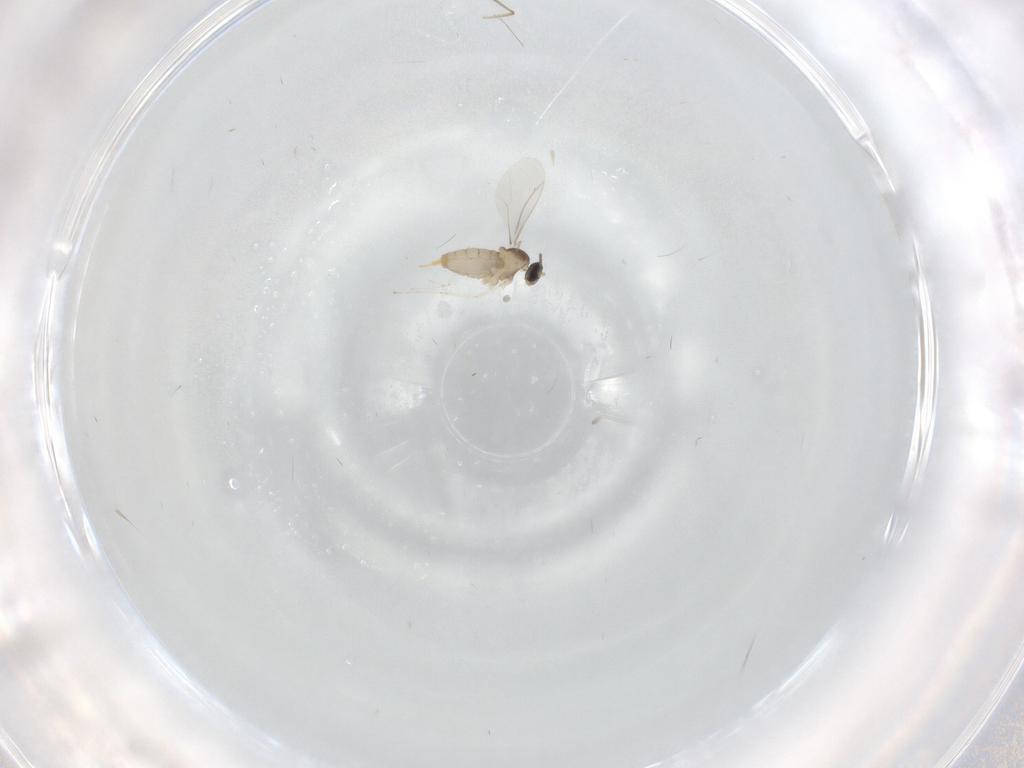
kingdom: Animalia
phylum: Arthropoda
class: Insecta
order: Diptera
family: Cecidomyiidae
